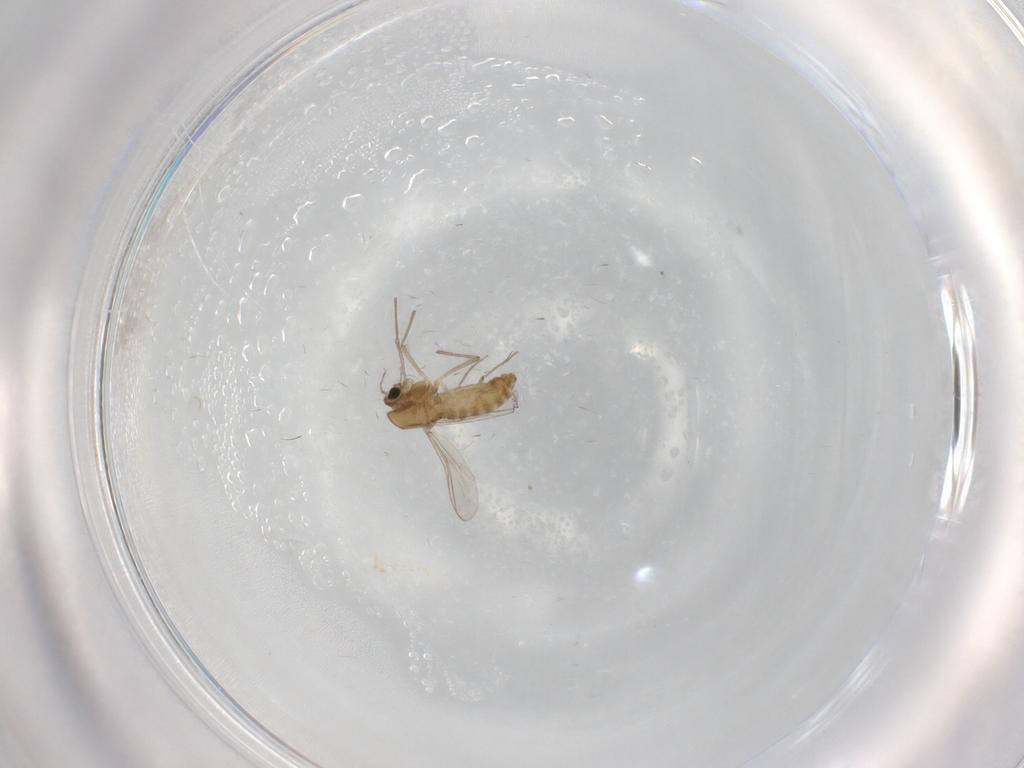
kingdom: Animalia
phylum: Arthropoda
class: Insecta
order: Diptera
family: Chironomidae
